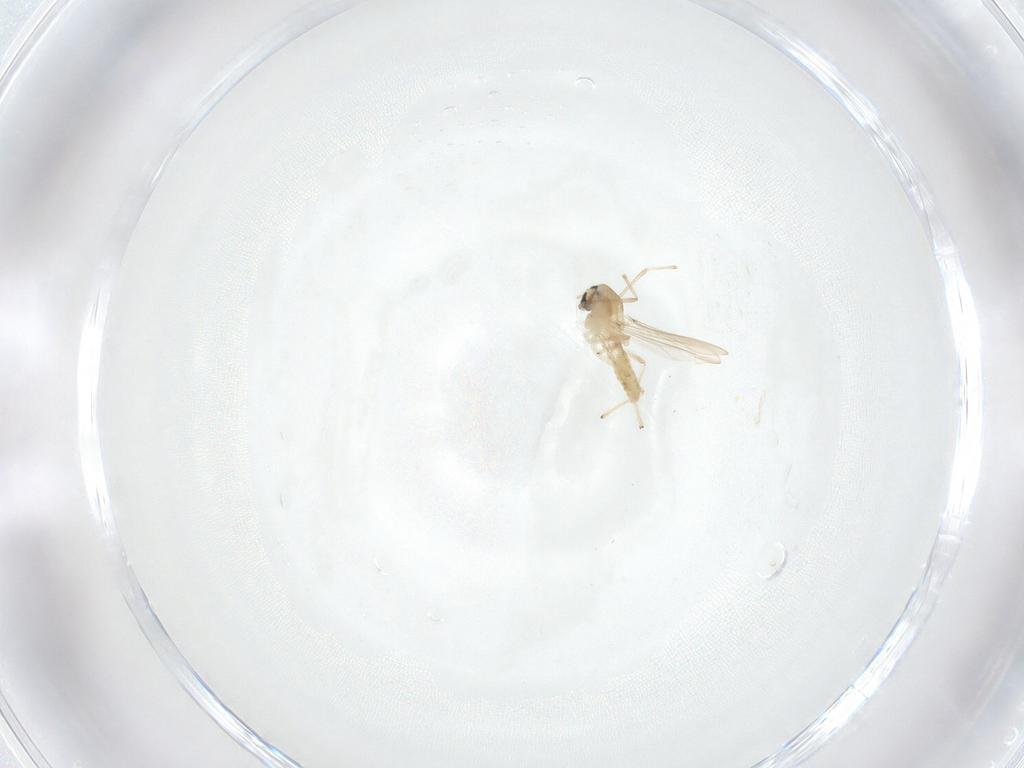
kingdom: Animalia
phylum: Arthropoda
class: Insecta
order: Diptera
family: Chironomidae
